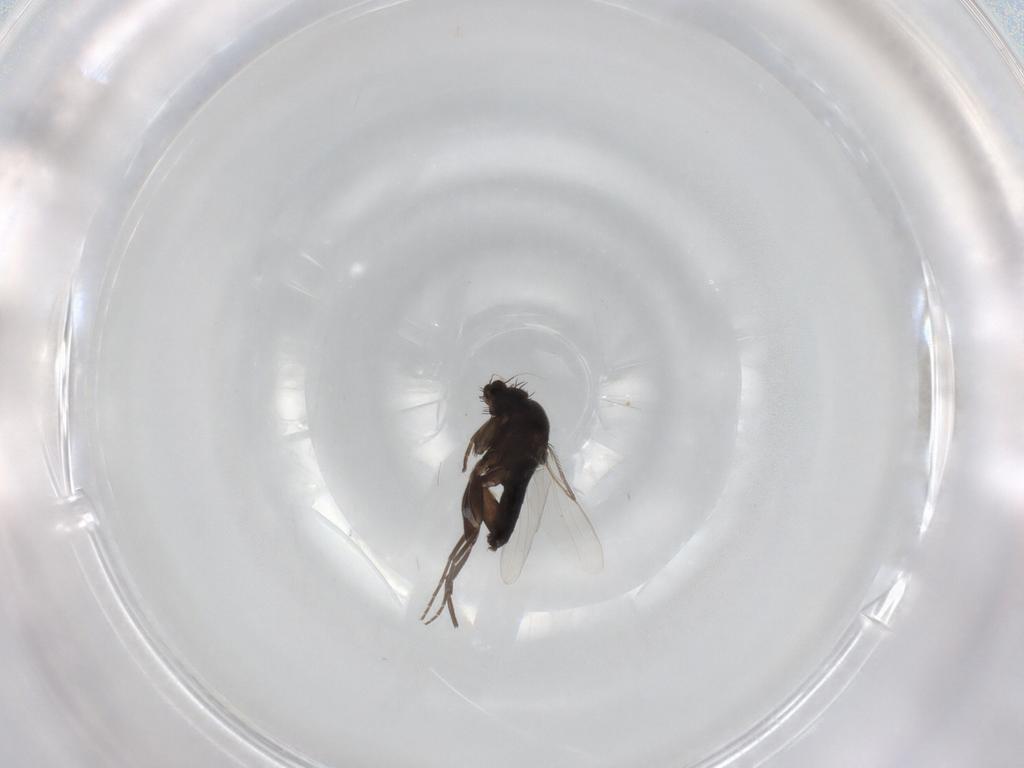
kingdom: Animalia
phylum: Arthropoda
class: Insecta
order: Diptera
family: Phoridae
